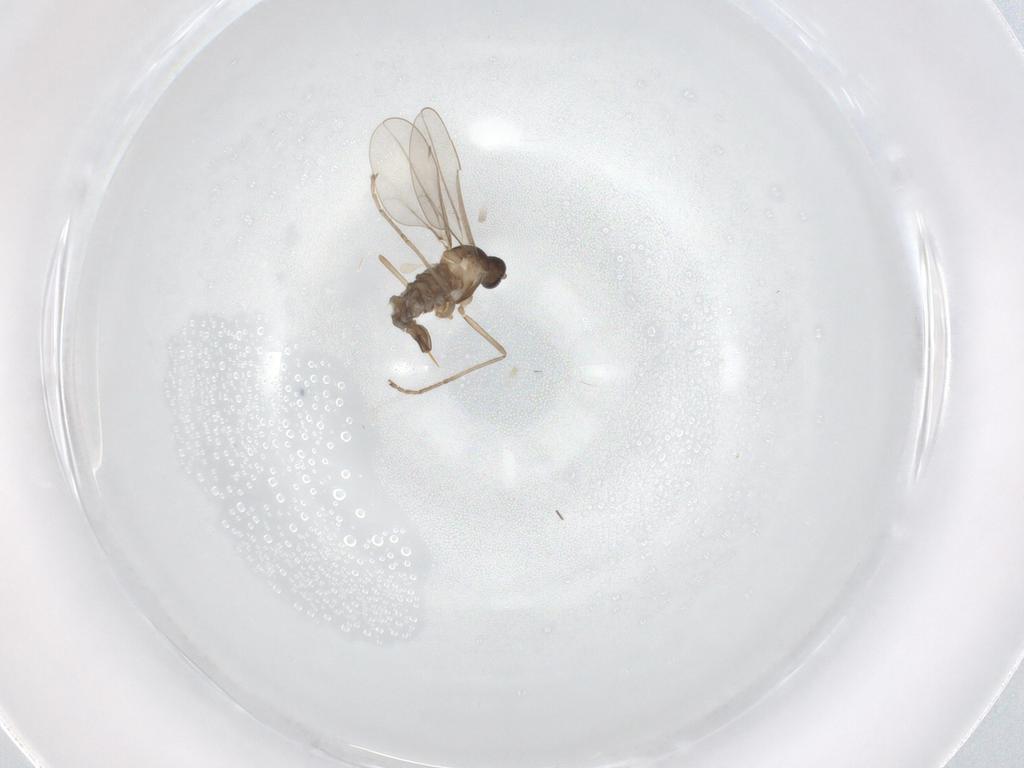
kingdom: Animalia
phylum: Arthropoda
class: Insecta
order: Diptera
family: Cecidomyiidae
